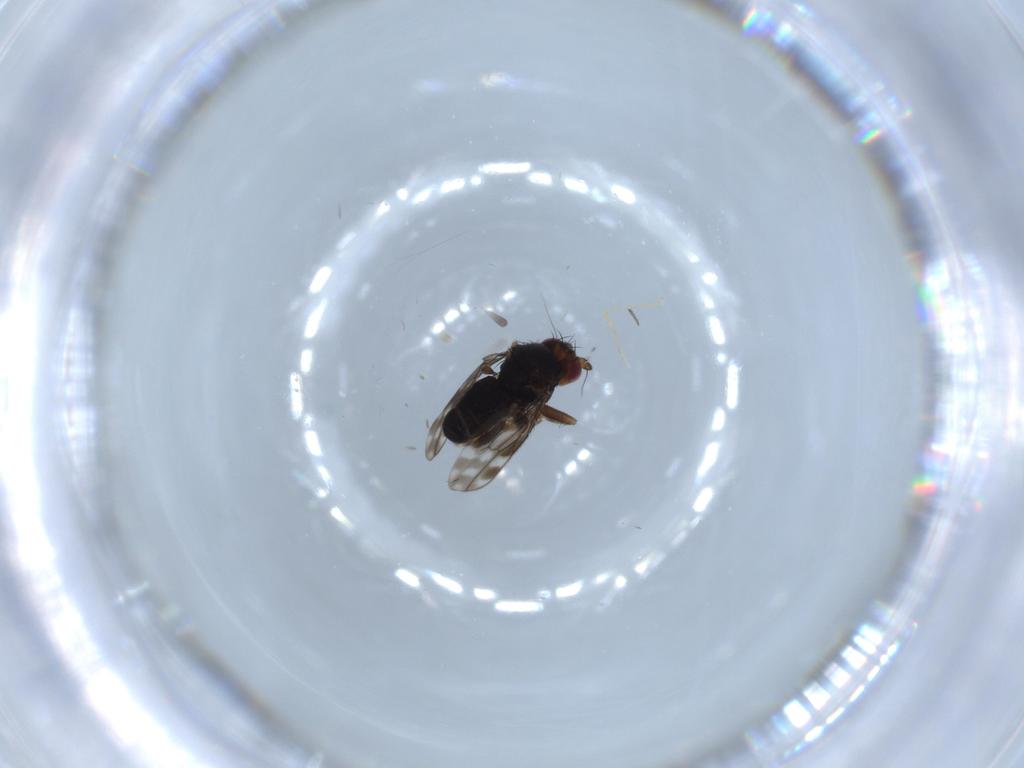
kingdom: Animalia
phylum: Arthropoda
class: Insecta
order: Diptera
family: Sphaeroceridae
